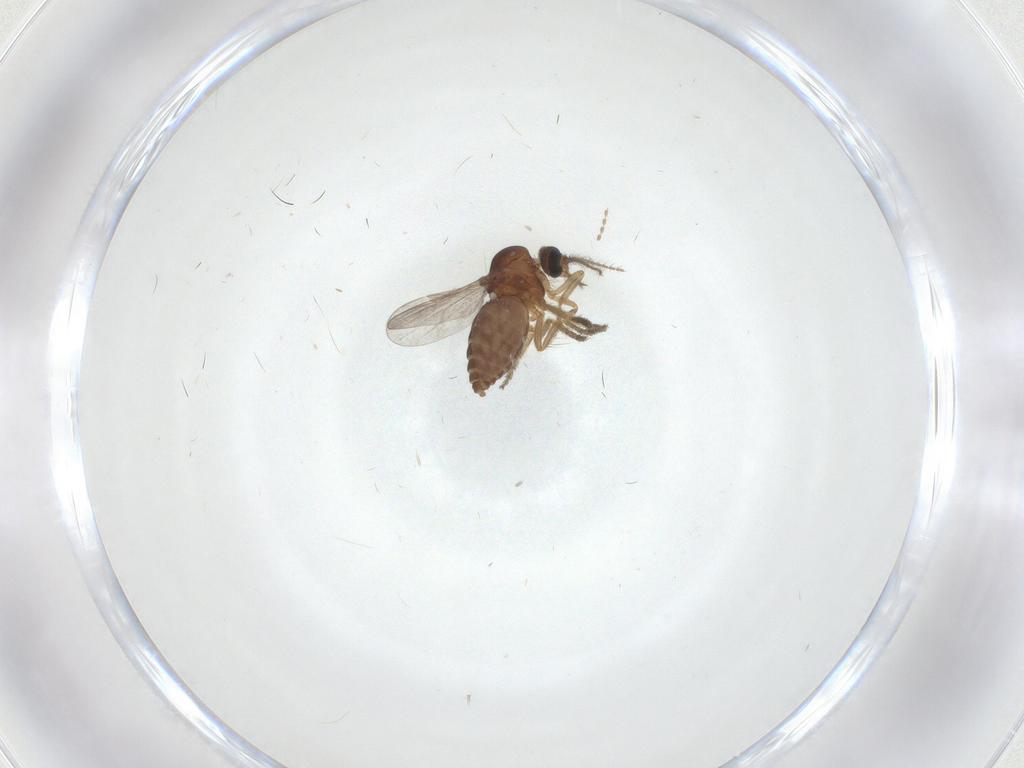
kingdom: Animalia
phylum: Arthropoda
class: Insecta
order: Diptera
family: Ceratopogonidae
